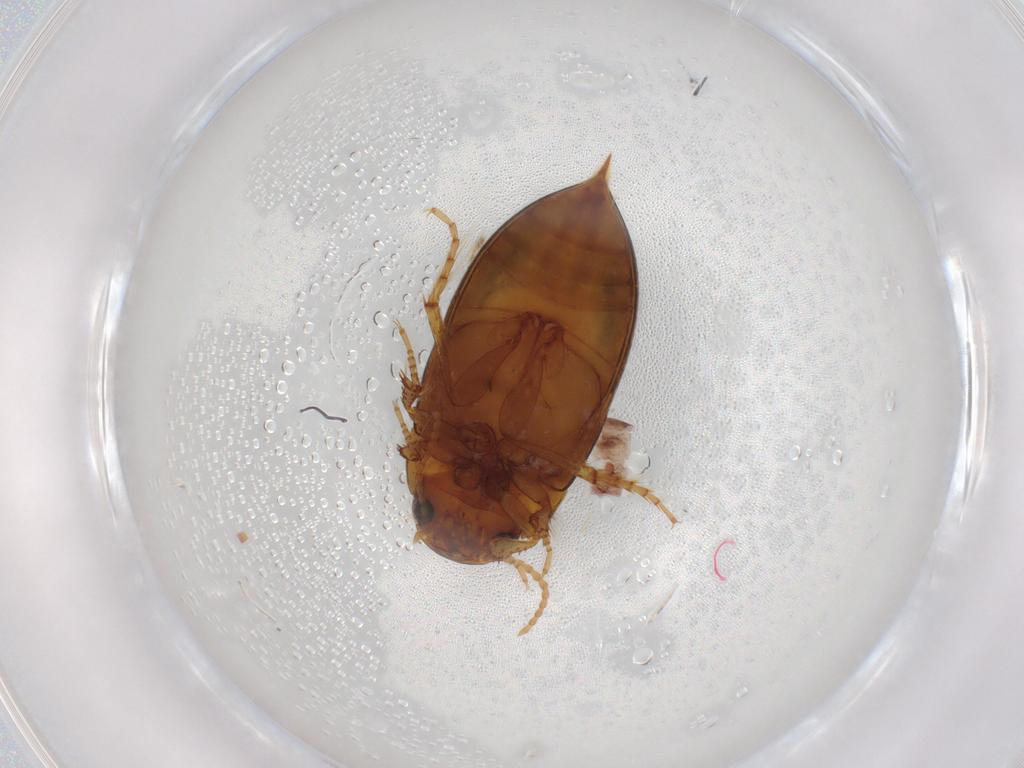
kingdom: Animalia
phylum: Arthropoda
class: Insecta
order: Coleoptera
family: Dytiscidae
